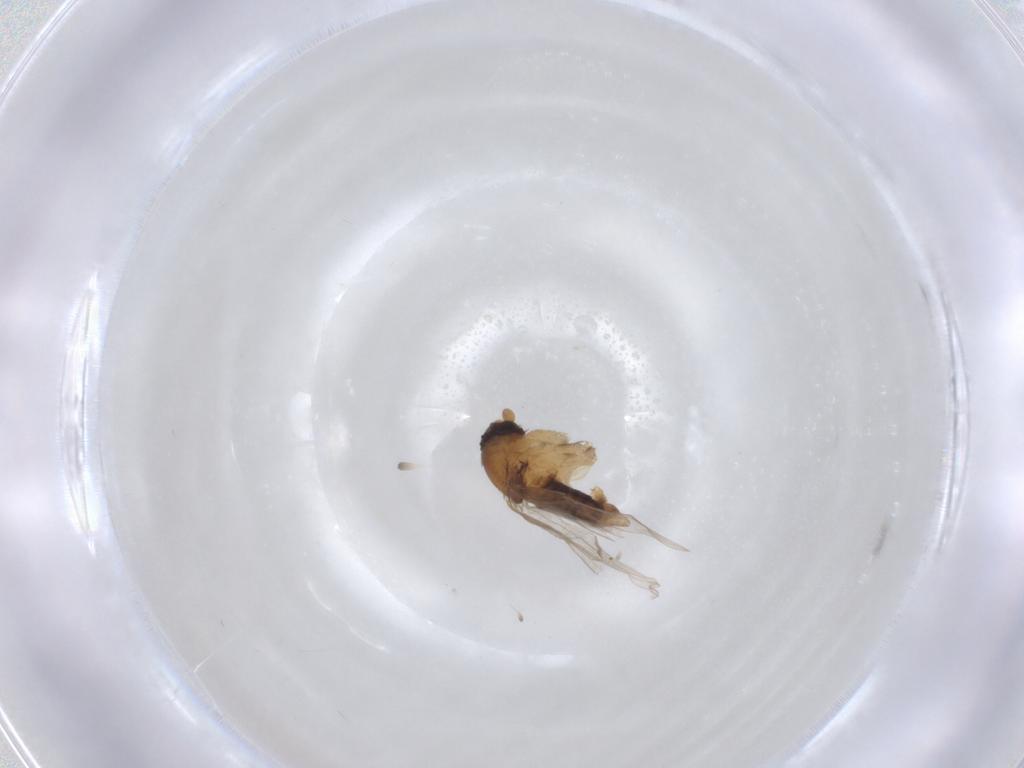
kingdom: Animalia
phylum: Arthropoda
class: Insecta
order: Diptera
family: Phoridae
